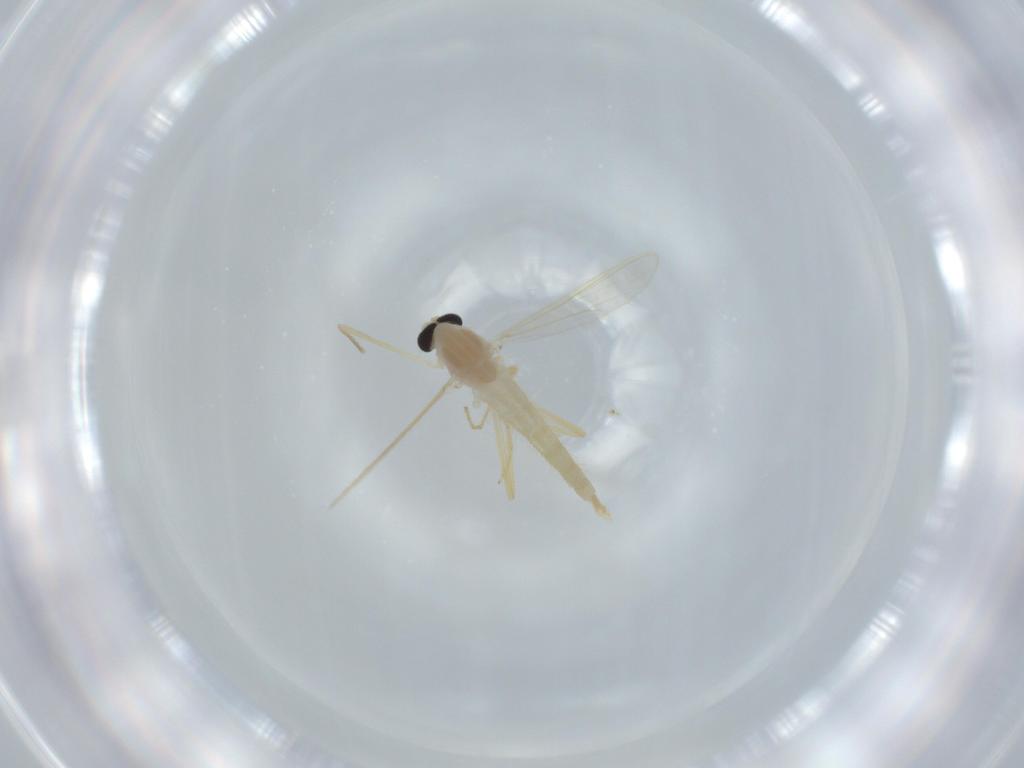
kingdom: Animalia
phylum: Arthropoda
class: Insecta
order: Diptera
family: Chironomidae
